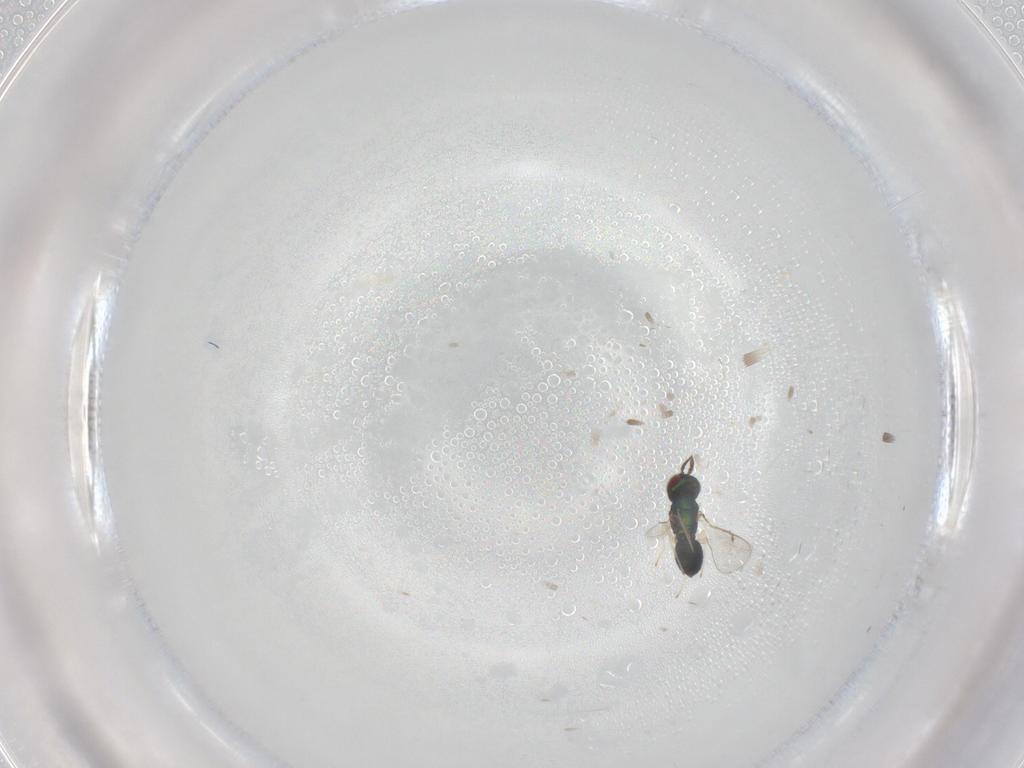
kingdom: Animalia
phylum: Arthropoda
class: Insecta
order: Hymenoptera
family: Eulophidae
